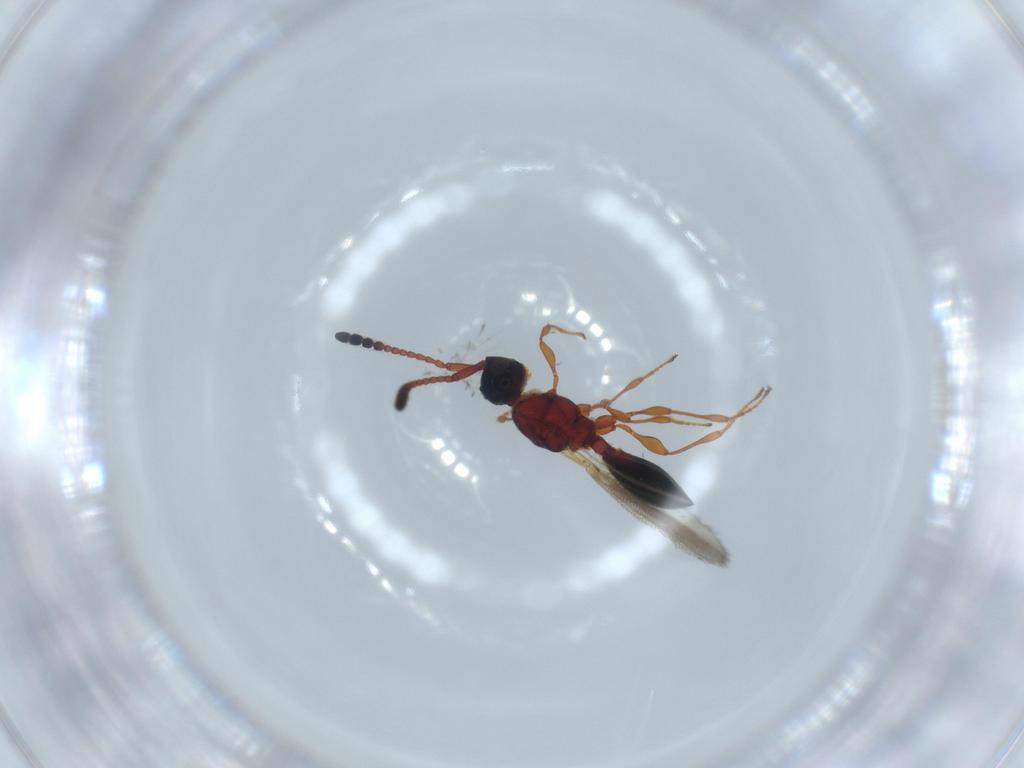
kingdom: Animalia
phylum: Arthropoda
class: Insecta
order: Hymenoptera
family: Diapriidae
